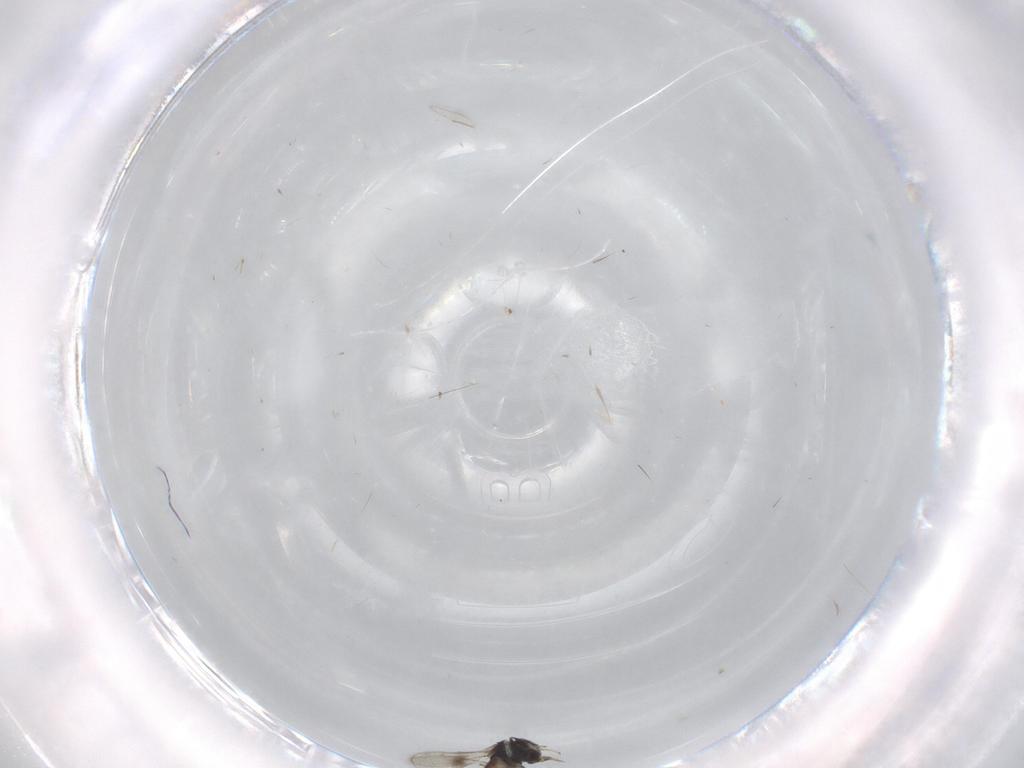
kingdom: Animalia
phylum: Arthropoda
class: Insecta
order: Hymenoptera
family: Eulophidae
